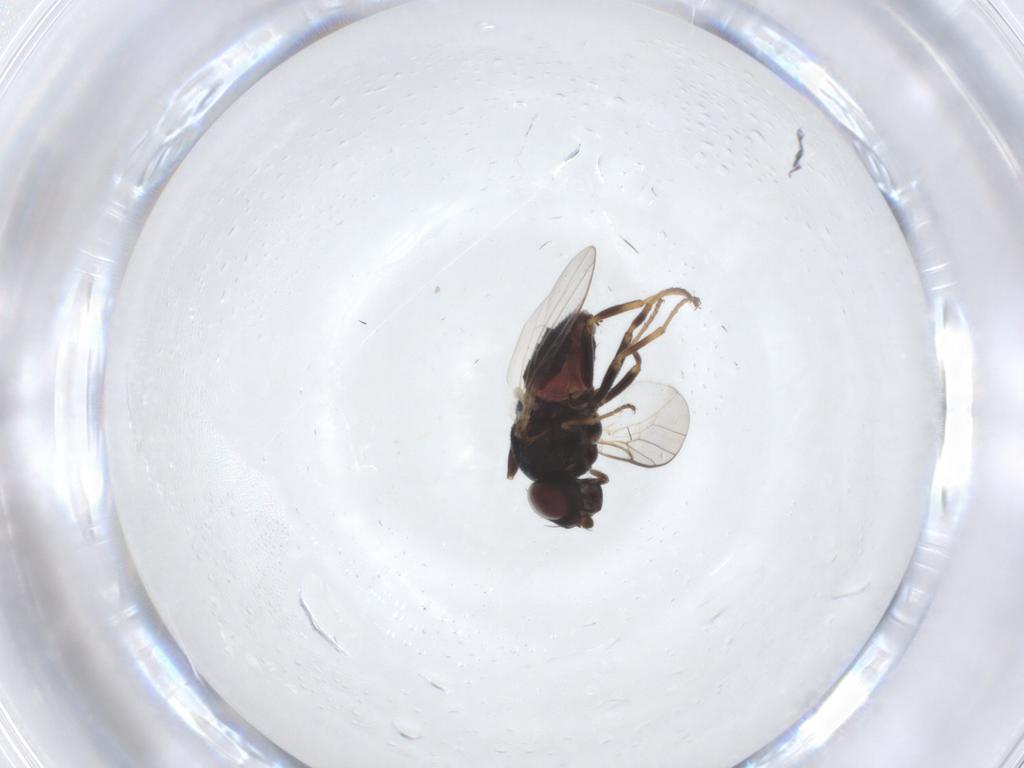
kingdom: Animalia
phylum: Arthropoda
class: Insecta
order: Diptera
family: Chloropidae
